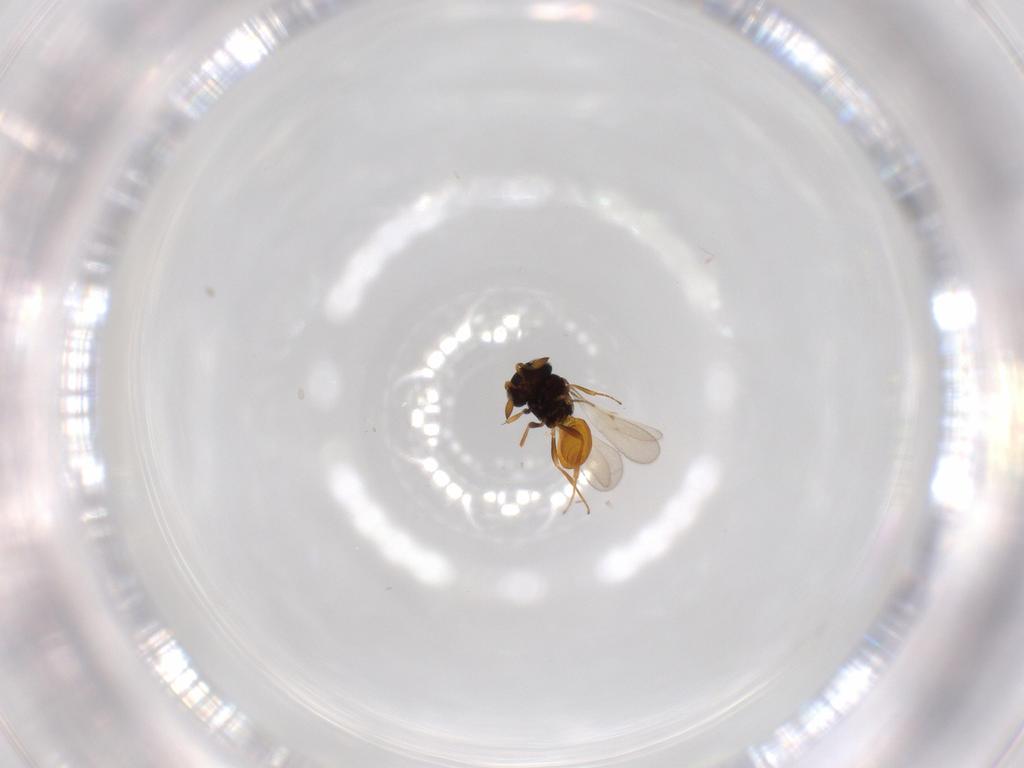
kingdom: Animalia
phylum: Arthropoda
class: Insecta
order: Hymenoptera
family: Scelionidae
